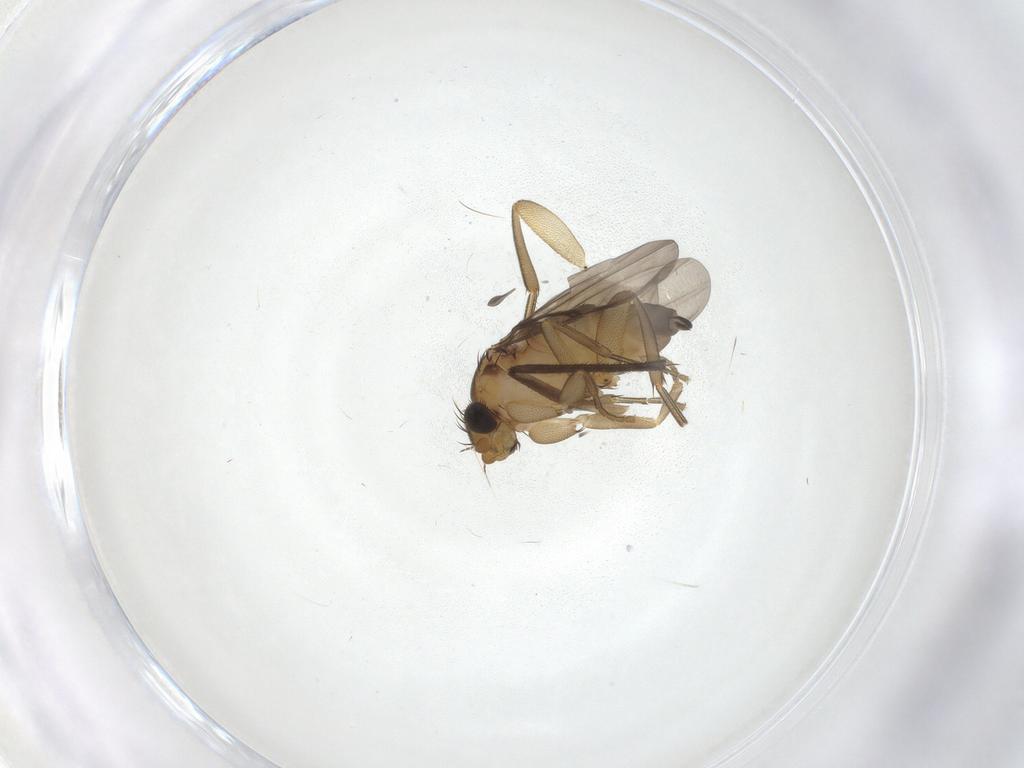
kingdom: Animalia
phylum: Arthropoda
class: Insecta
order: Diptera
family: Sciaridae
